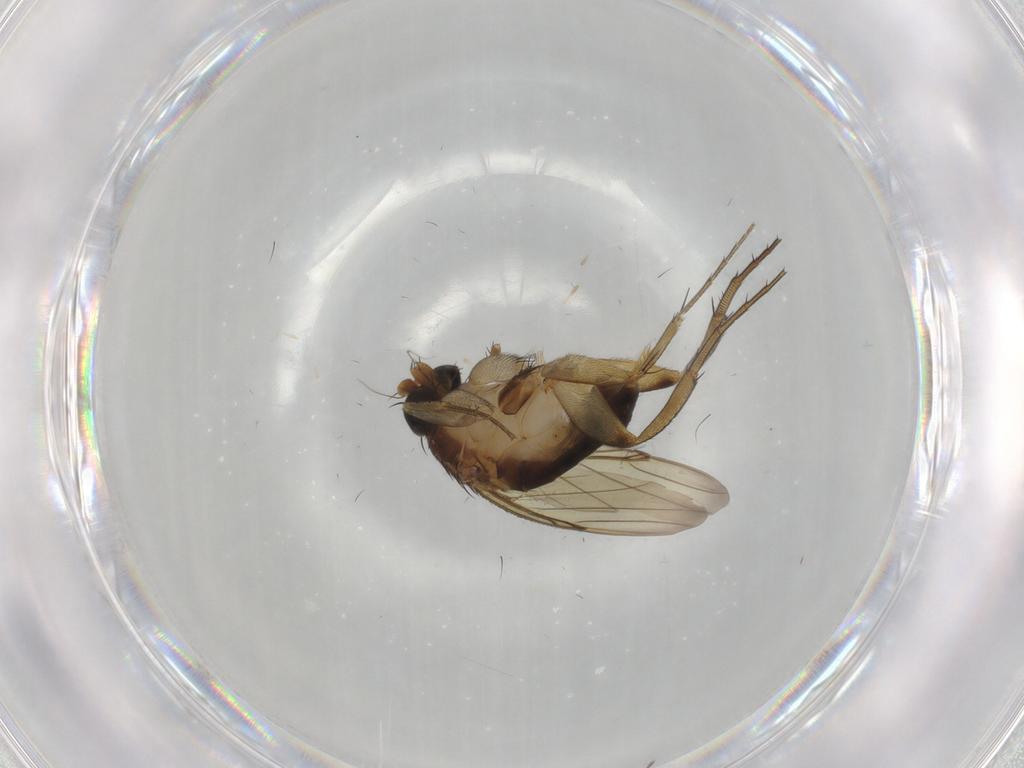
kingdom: Animalia
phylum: Arthropoda
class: Insecta
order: Diptera
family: Phoridae
